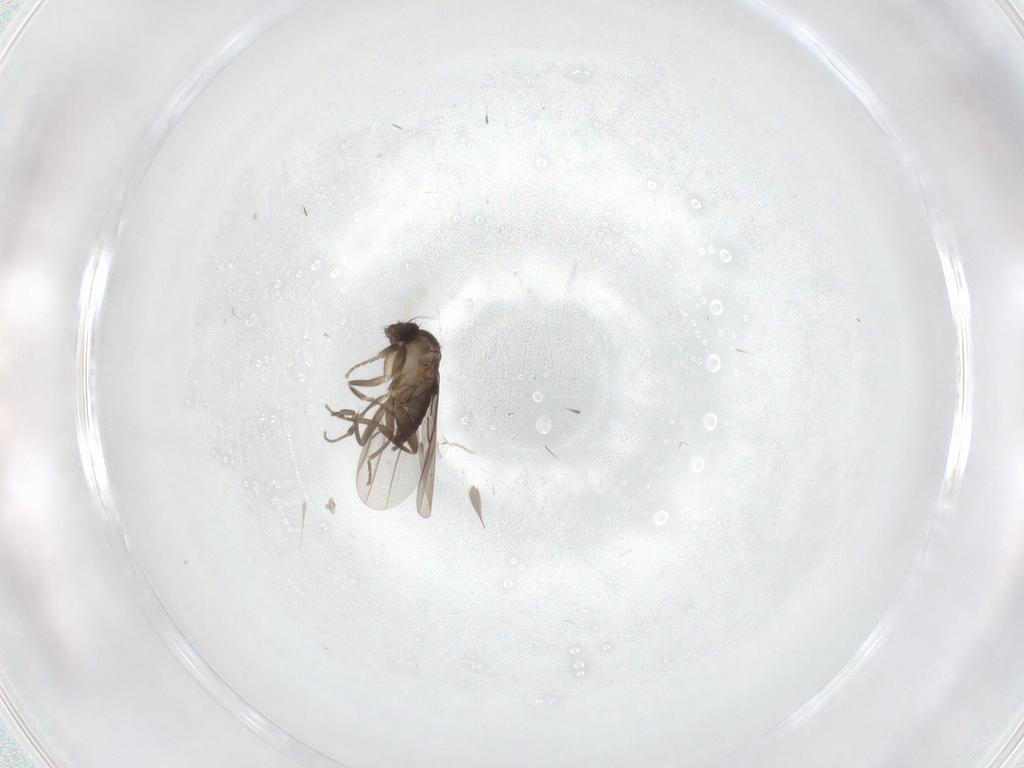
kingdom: Animalia
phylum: Arthropoda
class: Insecta
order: Diptera
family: Phoridae
